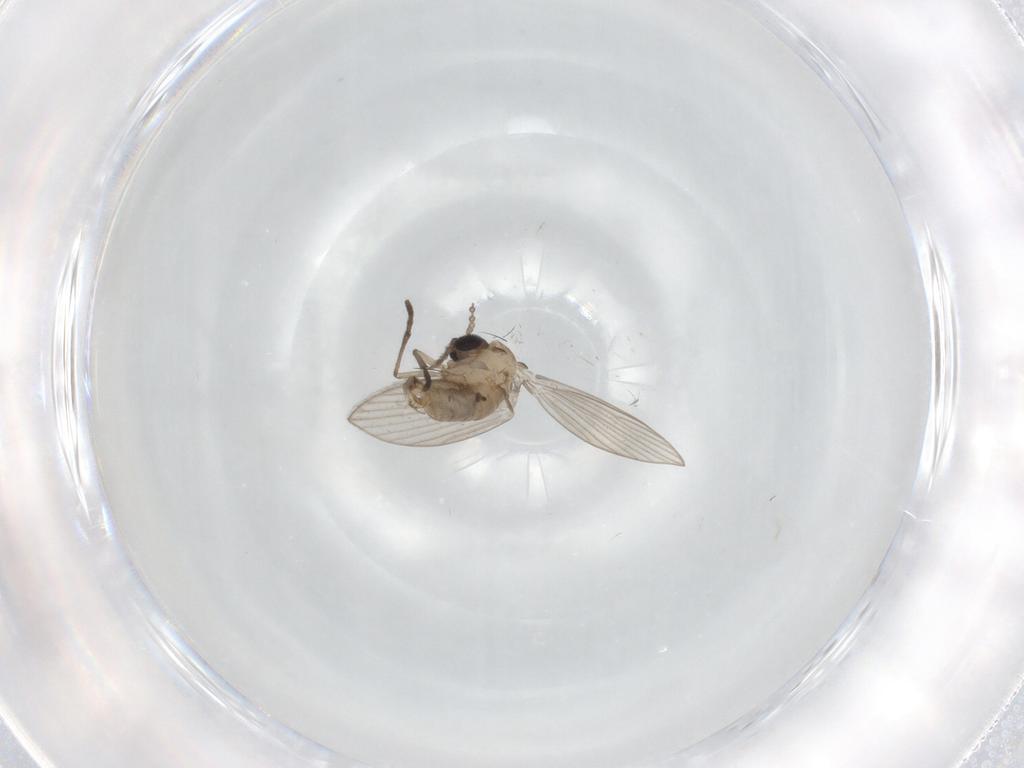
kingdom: Animalia
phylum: Arthropoda
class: Insecta
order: Diptera
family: Psychodidae
